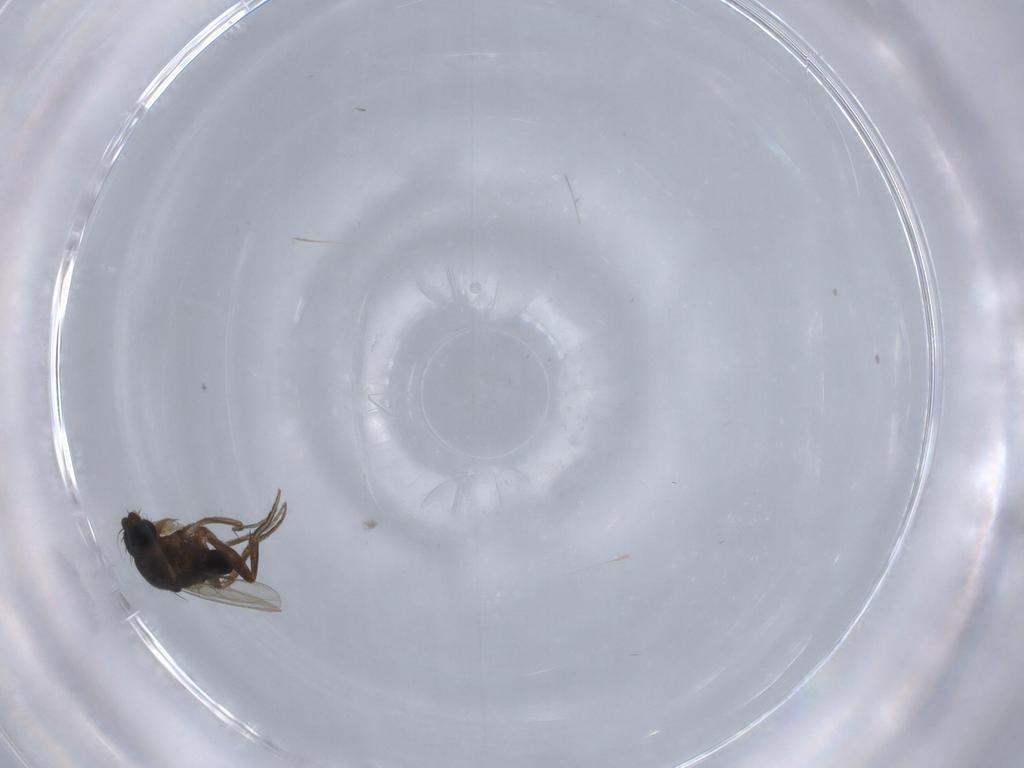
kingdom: Animalia
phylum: Arthropoda
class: Insecta
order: Diptera
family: Phoridae
